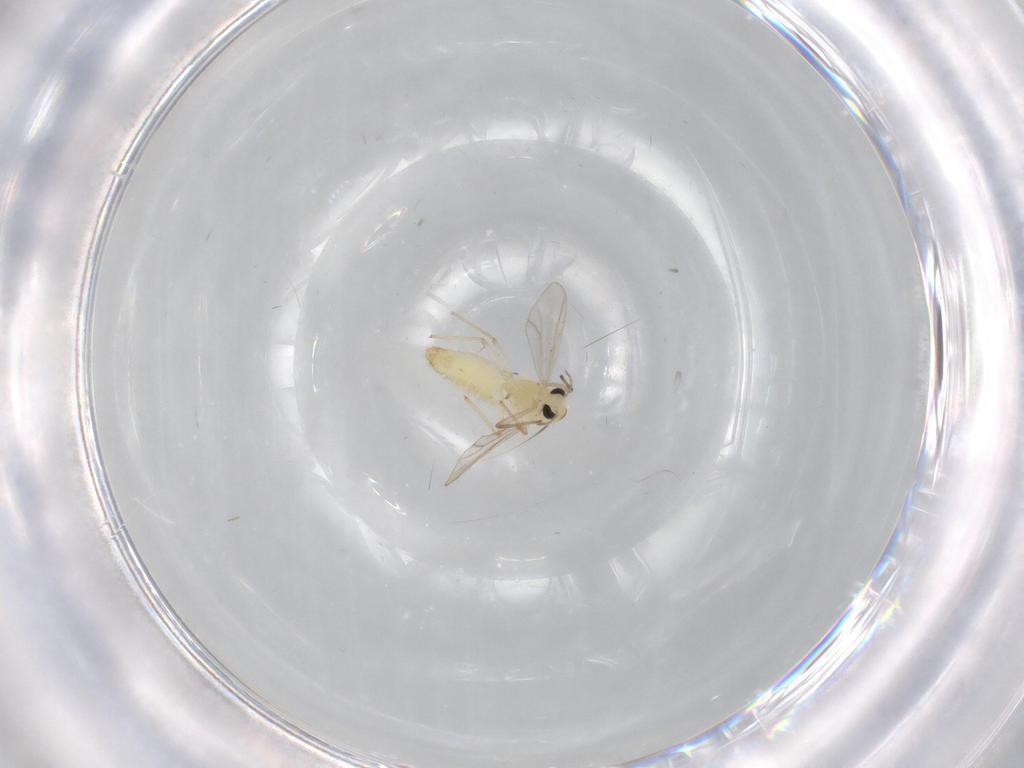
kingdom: Animalia
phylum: Arthropoda
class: Insecta
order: Diptera
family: Chironomidae
